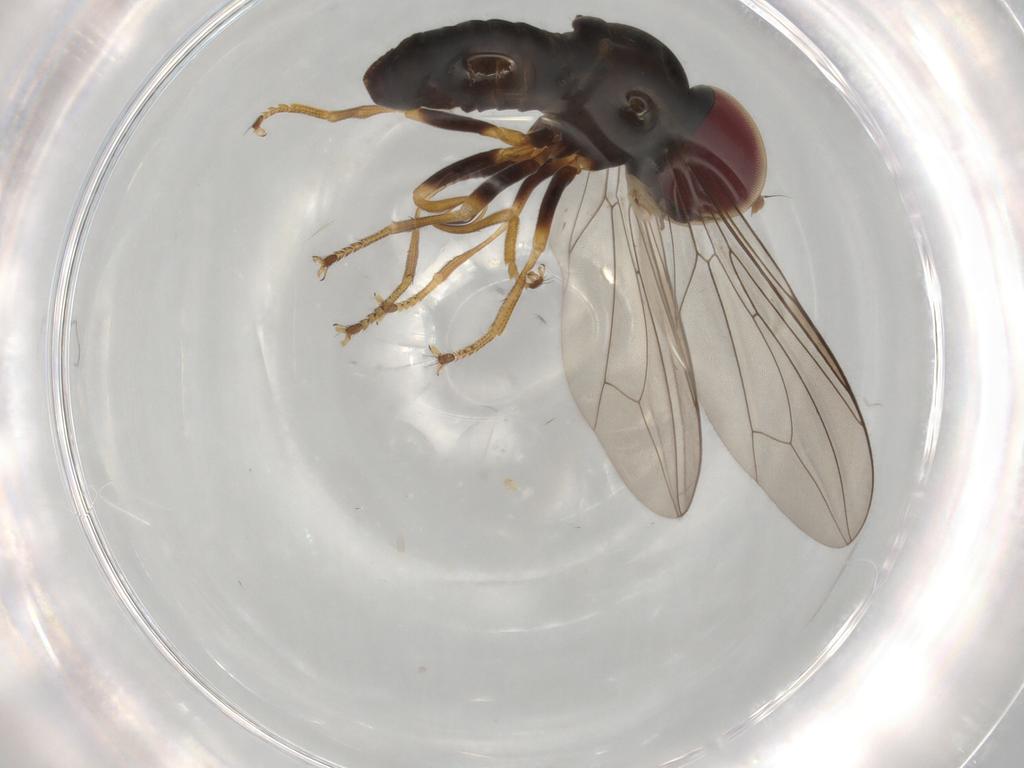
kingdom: Animalia
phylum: Arthropoda
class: Insecta
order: Diptera
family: Pipunculidae
